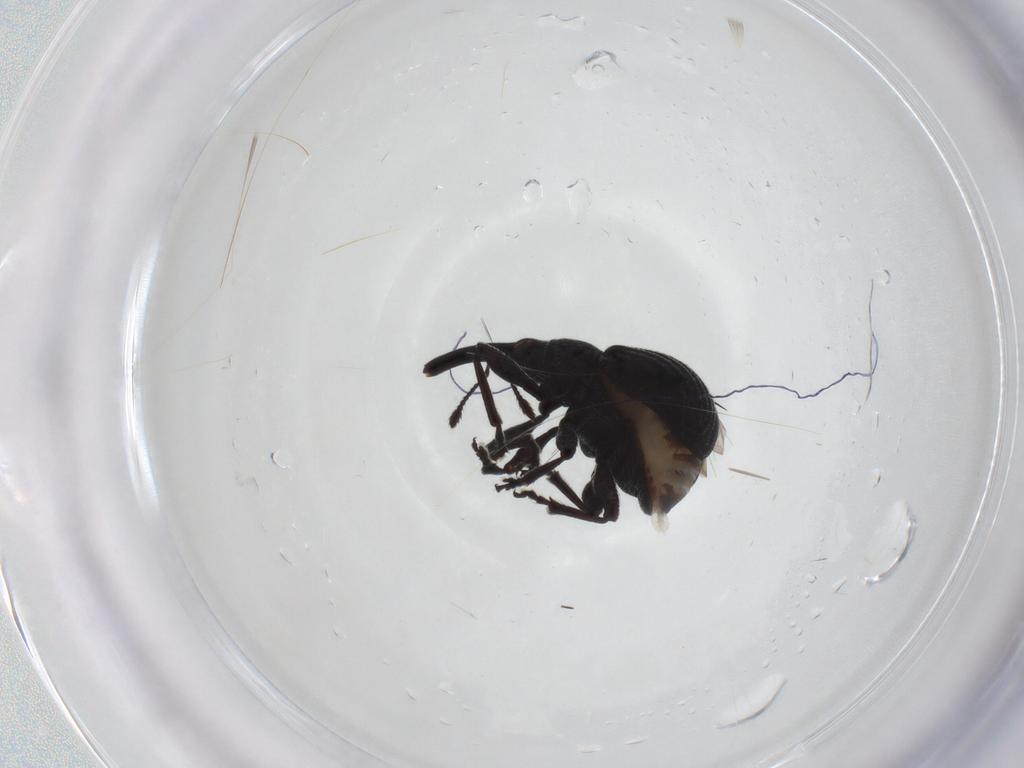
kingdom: Animalia
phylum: Arthropoda
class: Insecta
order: Coleoptera
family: Brentidae
